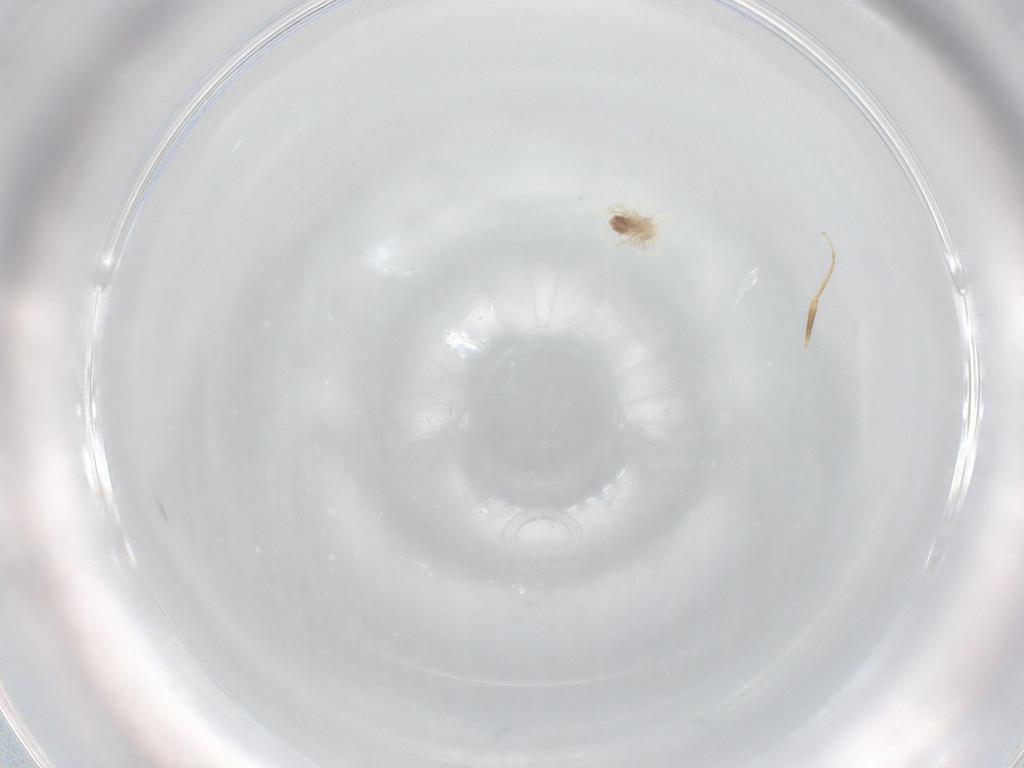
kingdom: Animalia
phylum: Arthropoda
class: Arachnida
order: Trombidiformes
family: Anystidae
